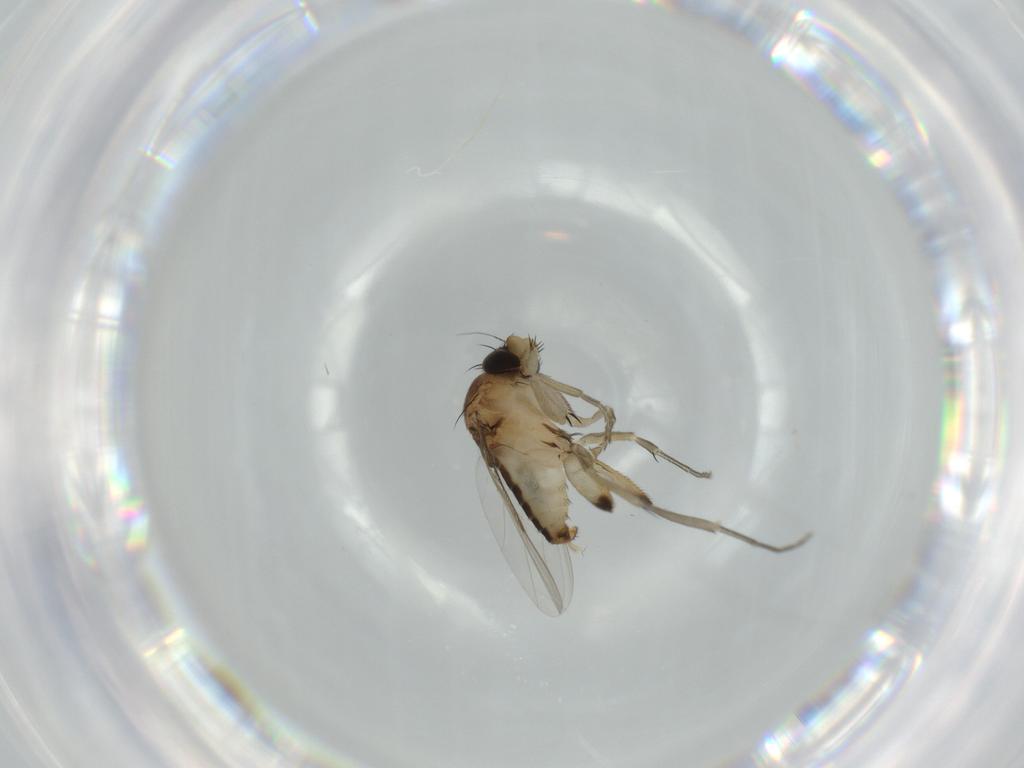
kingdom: Animalia
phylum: Arthropoda
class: Insecta
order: Diptera
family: Phoridae
